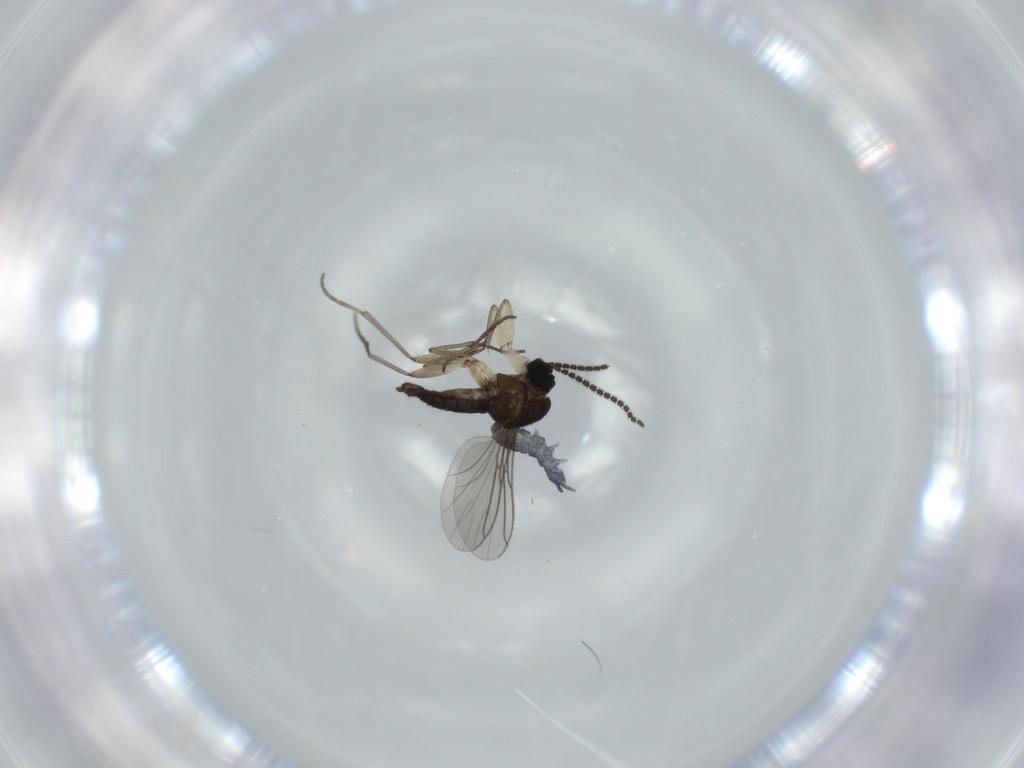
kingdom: Animalia
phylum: Arthropoda
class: Insecta
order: Diptera
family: Sciaridae
